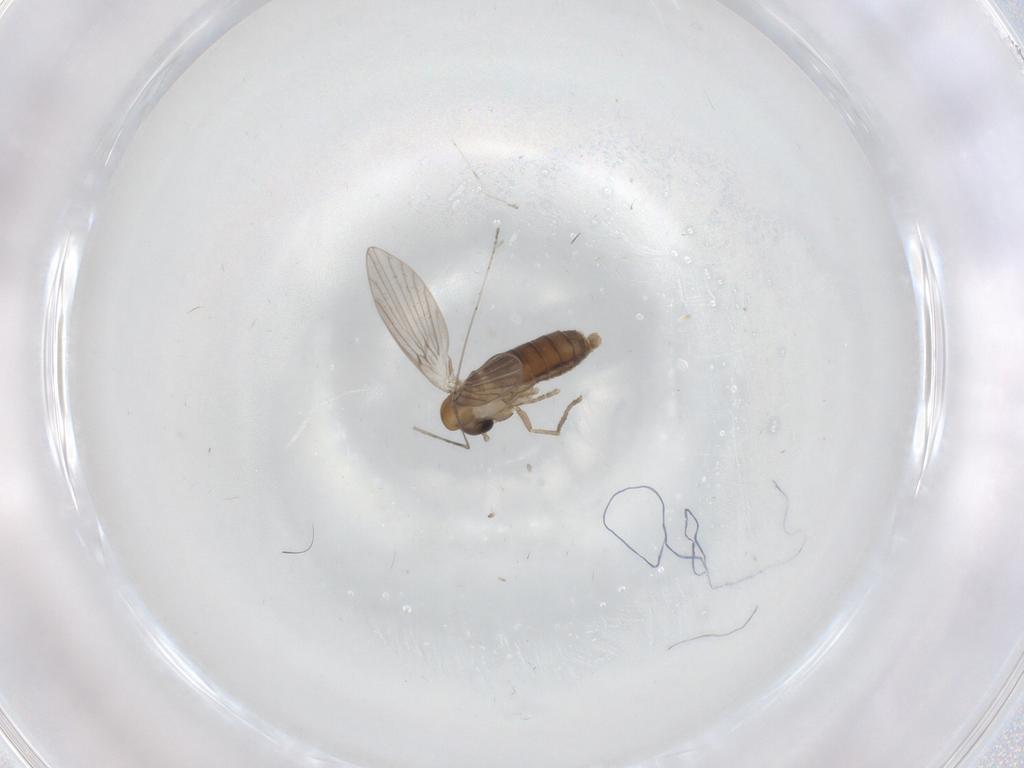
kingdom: Animalia
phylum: Arthropoda
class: Insecta
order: Diptera
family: Psychodidae
